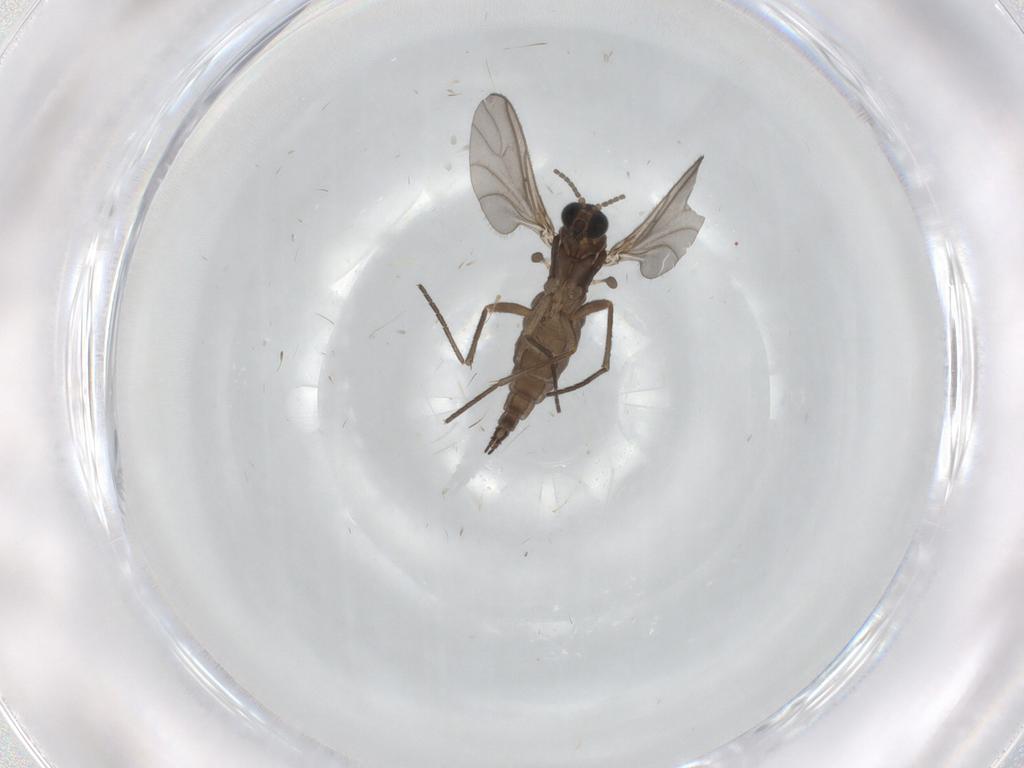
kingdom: Animalia
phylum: Arthropoda
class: Insecta
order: Diptera
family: Sciaridae
